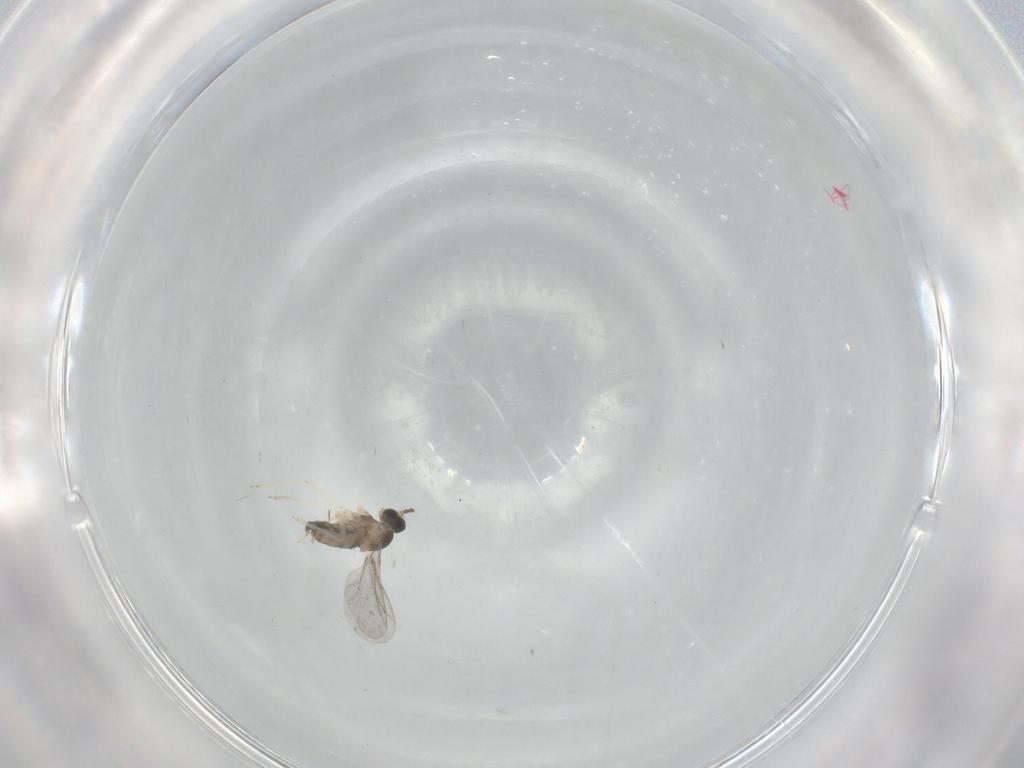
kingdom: Animalia
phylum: Arthropoda
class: Insecta
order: Diptera
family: Cecidomyiidae
